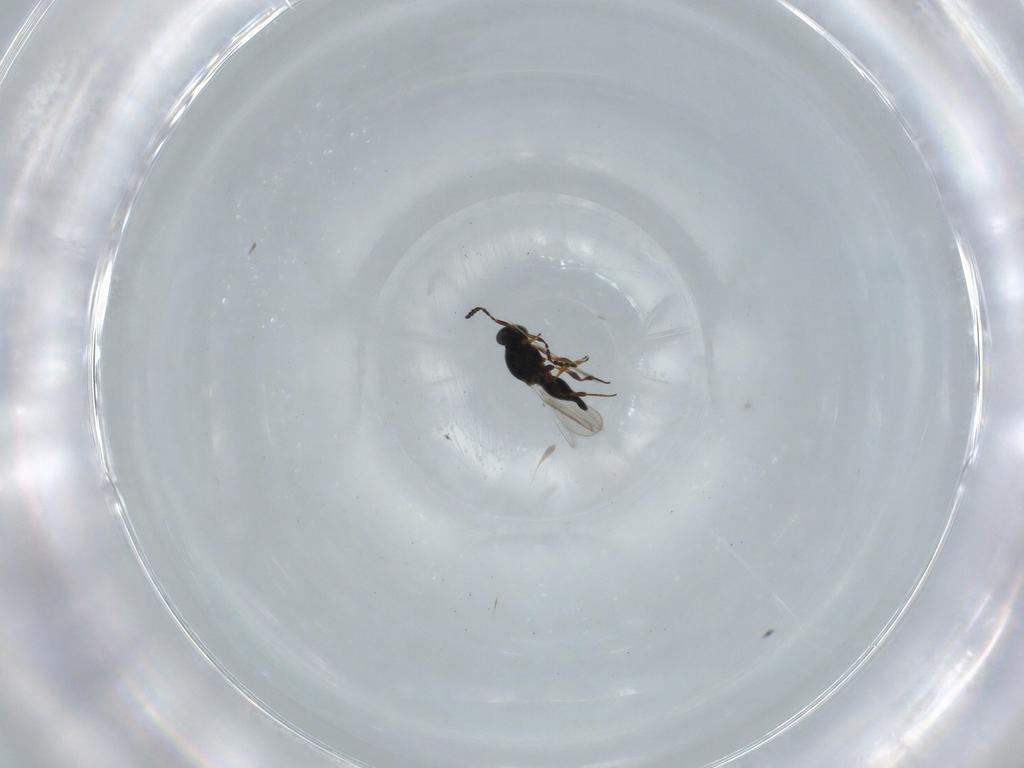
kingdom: Animalia
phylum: Arthropoda
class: Insecta
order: Hymenoptera
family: Platygastridae
